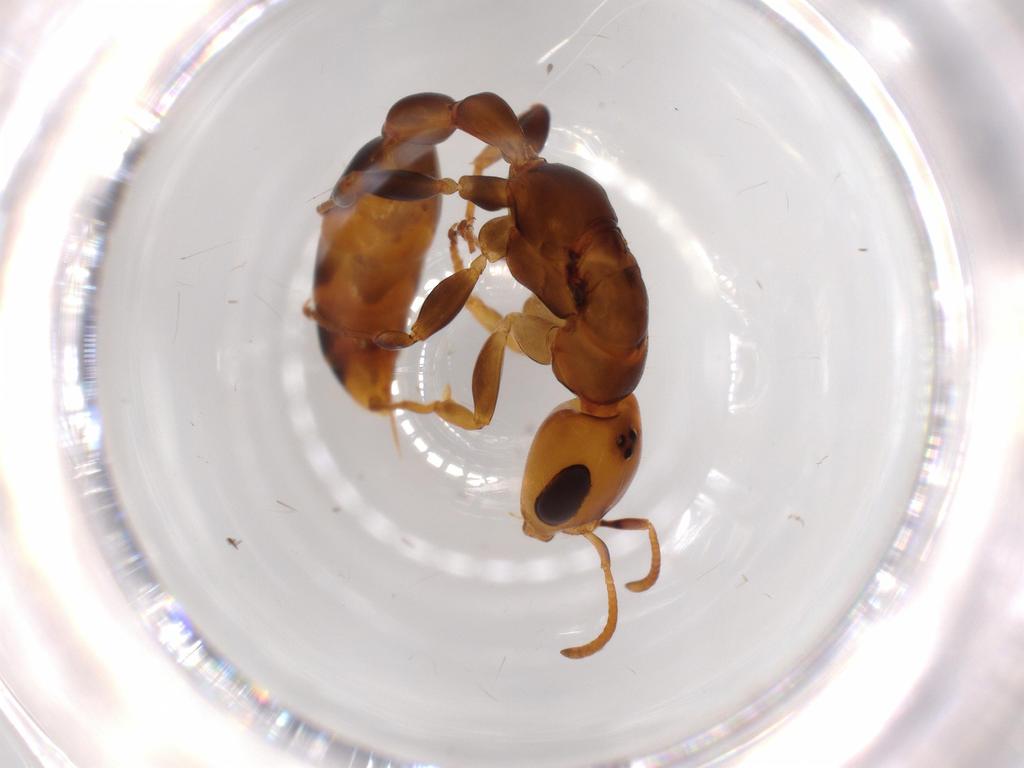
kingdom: Animalia
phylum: Arthropoda
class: Insecta
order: Hymenoptera
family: Formicidae
